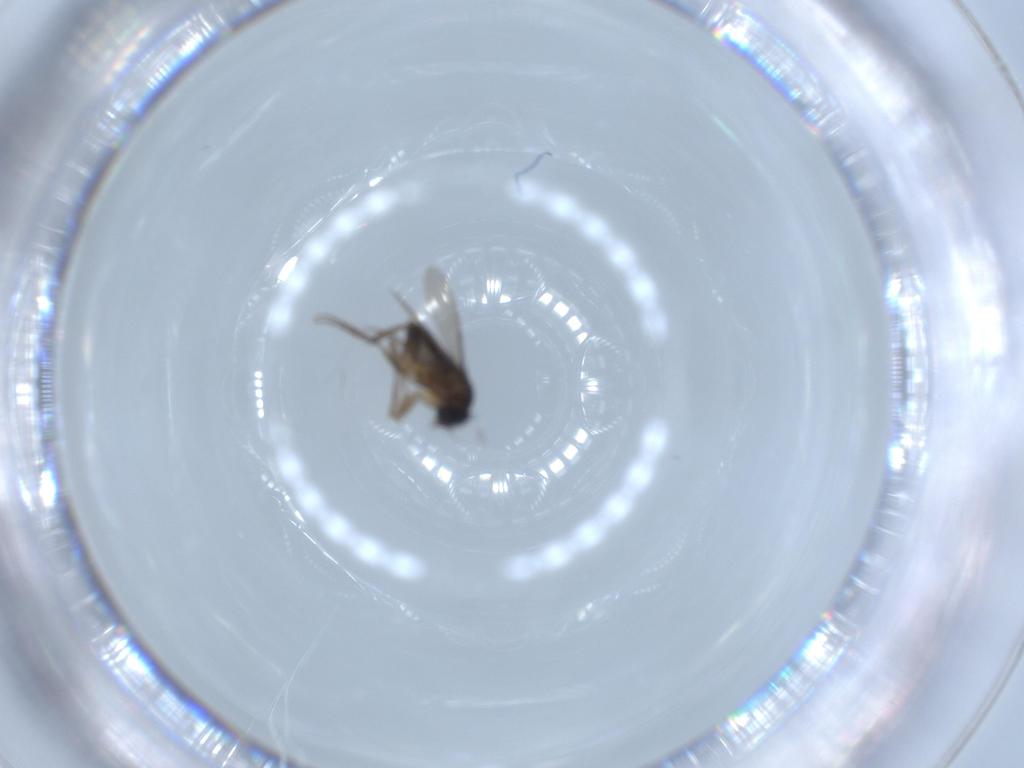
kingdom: Animalia
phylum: Arthropoda
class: Insecta
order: Diptera
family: Phoridae
